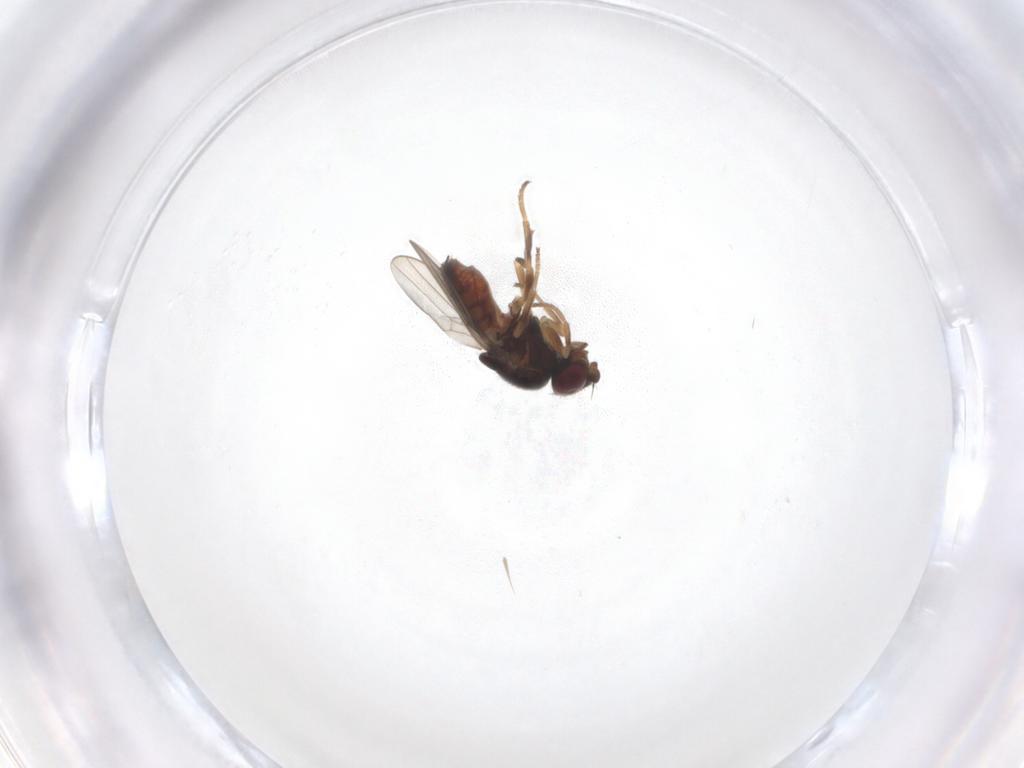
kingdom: Animalia
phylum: Arthropoda
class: Insecta
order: Diptera
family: Chloropidae
